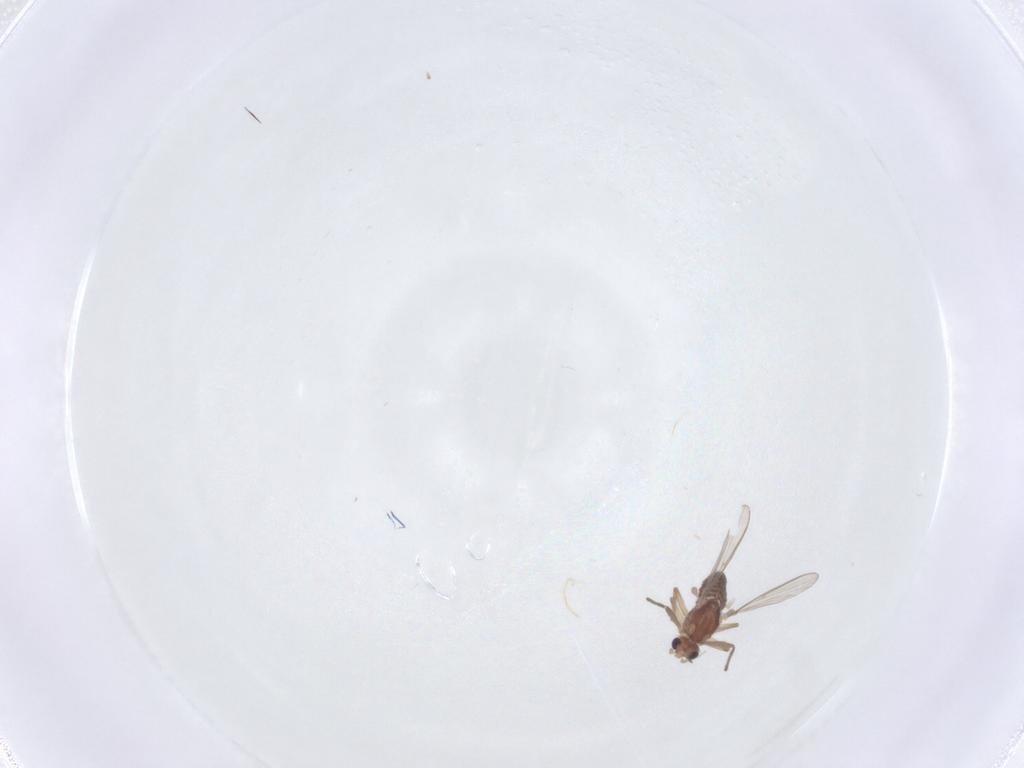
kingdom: Animalia
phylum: Arthropoda
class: Insecta
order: Diptera
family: Chironomidae
